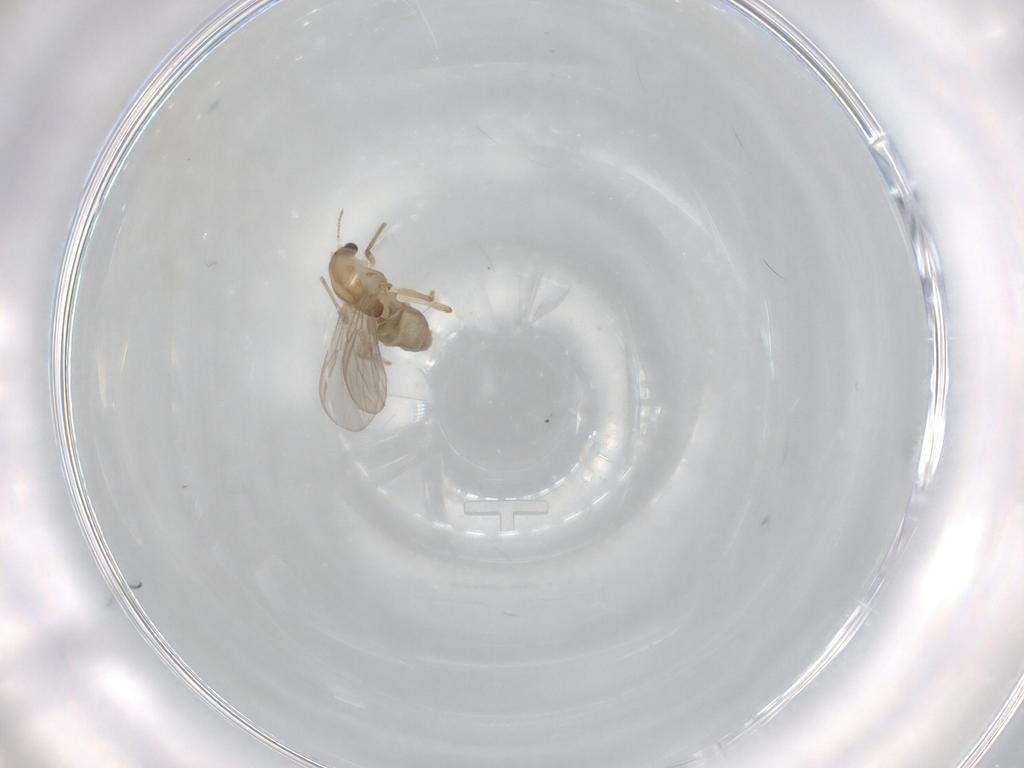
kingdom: Animalia
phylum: Arthropoda
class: Insecta
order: Diptera
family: Chironomidae
